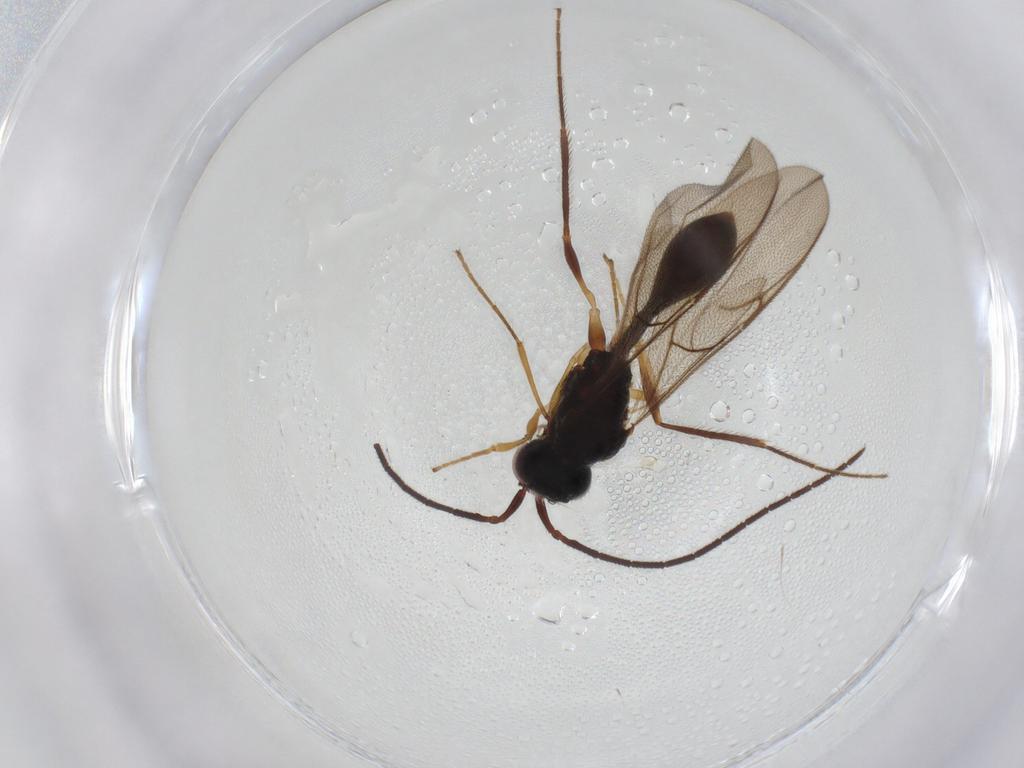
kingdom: Animalia
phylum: Arthropoda
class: Insecta
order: Hymenoptera
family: Diapriidae
